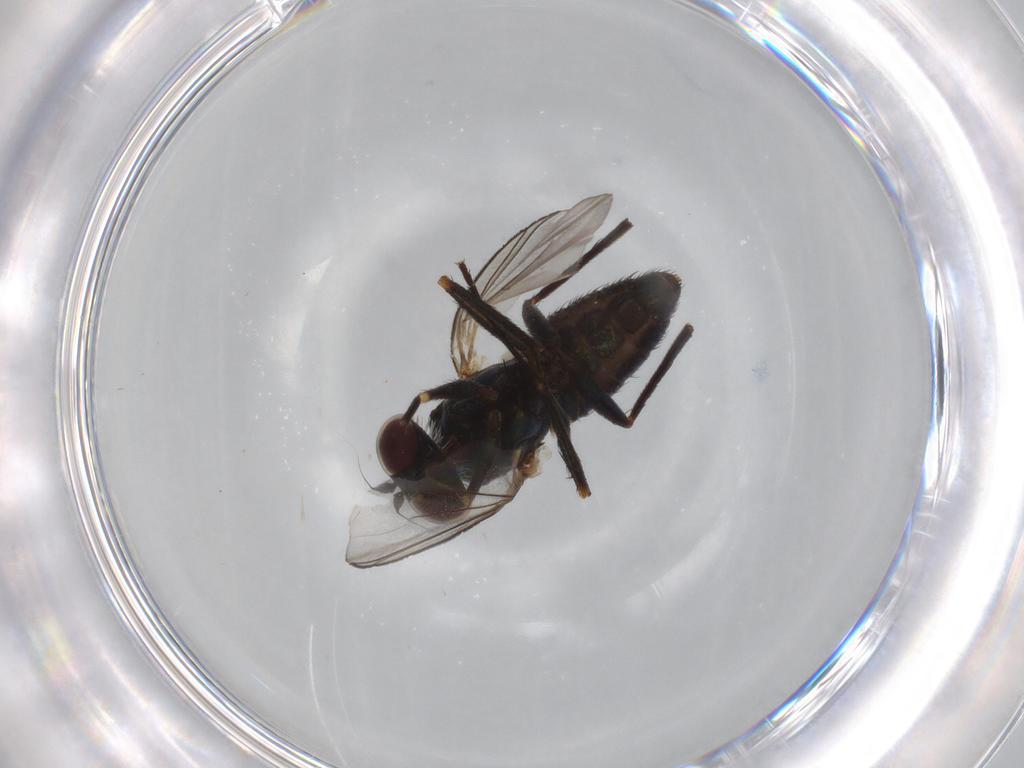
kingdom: Animalia
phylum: Arthropoda
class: Insecta
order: Diptera
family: Dolichopodidae
